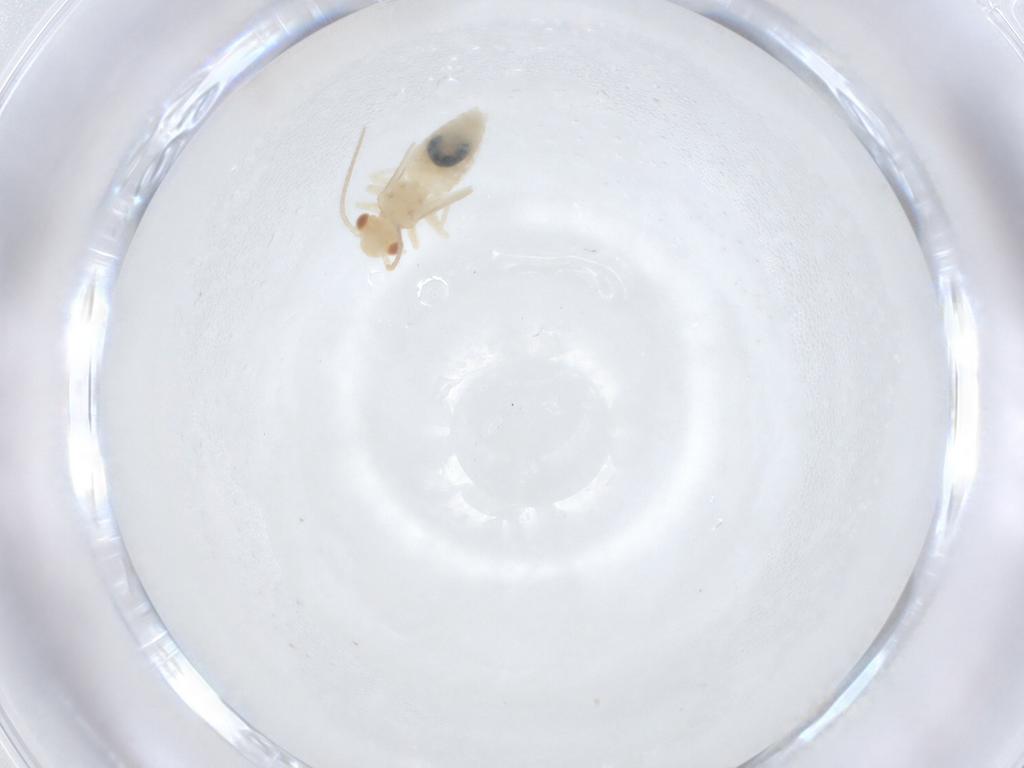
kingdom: Animalia
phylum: Arthropoda
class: Insecta
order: Psocodea
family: Caeciliusidae
